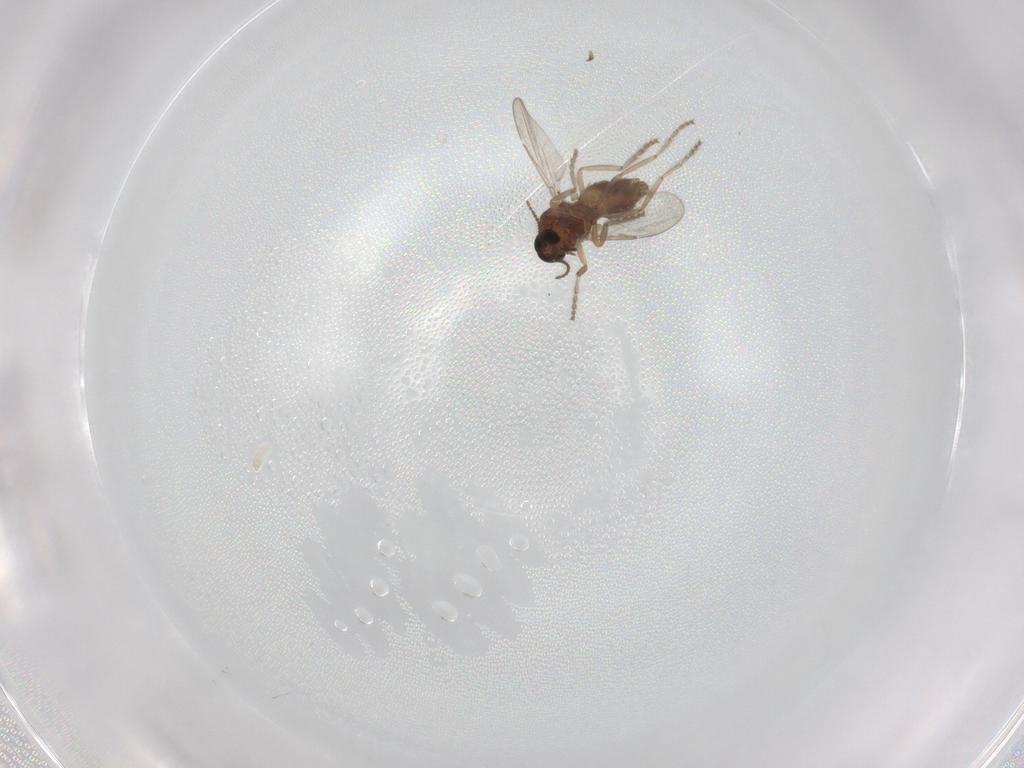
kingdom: Animalia
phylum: Arthropoda
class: Insecta
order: Diptera
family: Ceratopogonidae
